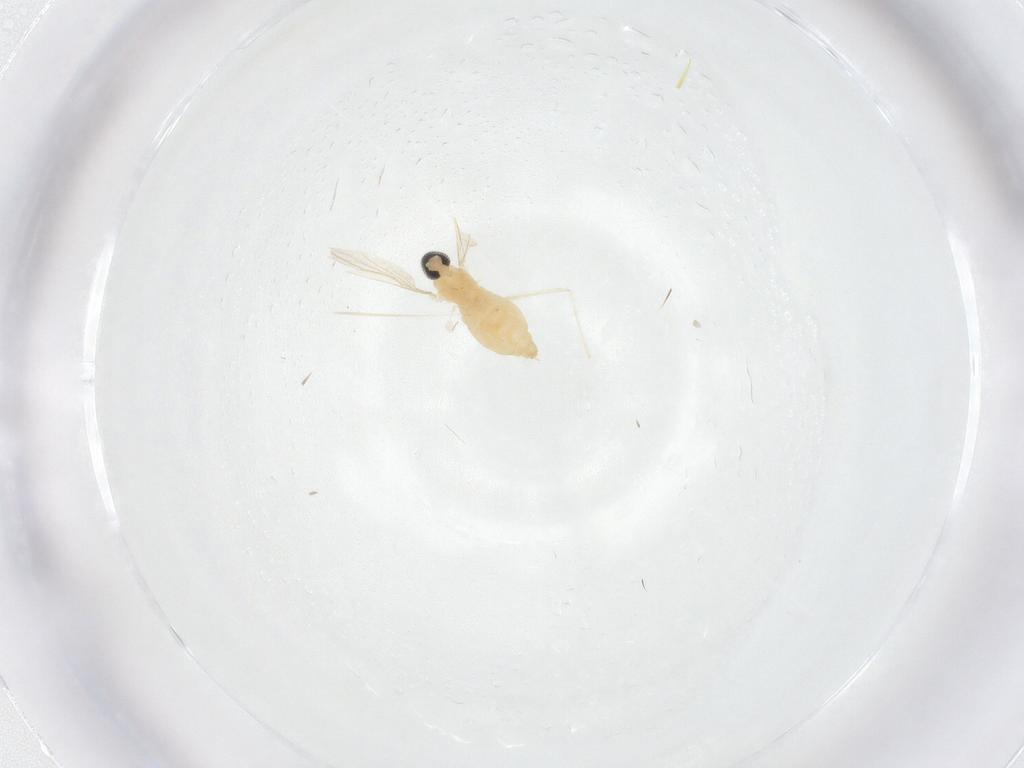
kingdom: Animalia
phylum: Arthropoda
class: Insecta
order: Diptera
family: Cecidomyiidae
